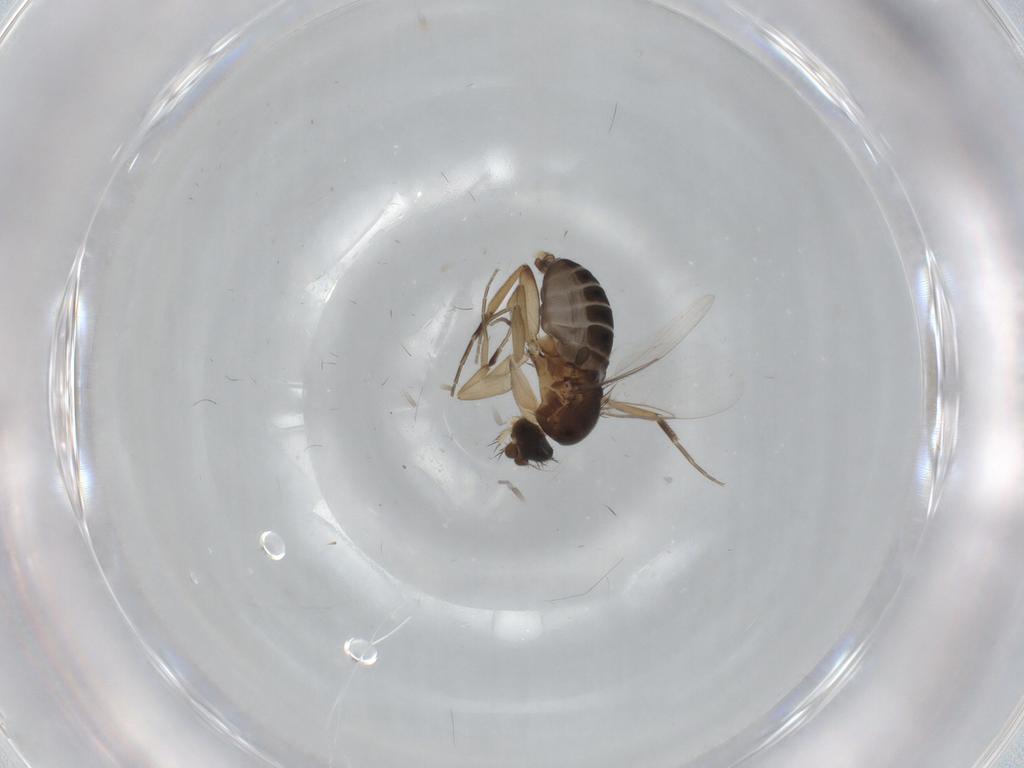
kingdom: Animalia
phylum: Arthropoda
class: Insecta
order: Diptera
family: Phoridae
